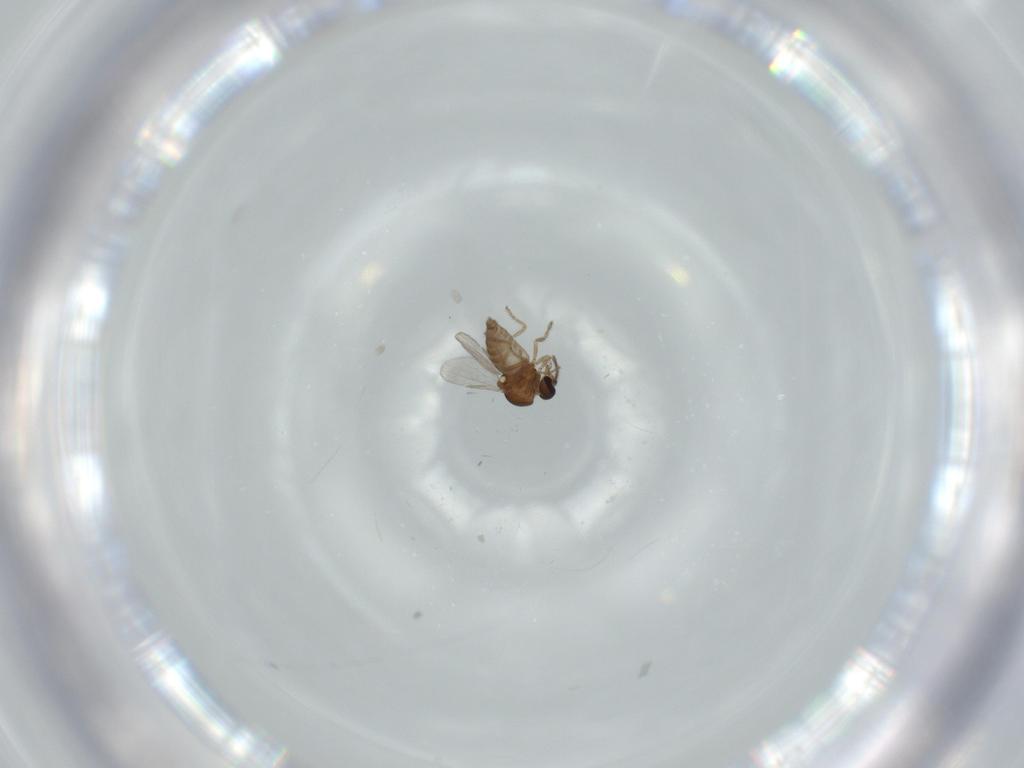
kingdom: Animalia
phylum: Arthropoda
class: Insecta
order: Diptera
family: Ceratopogonidae
